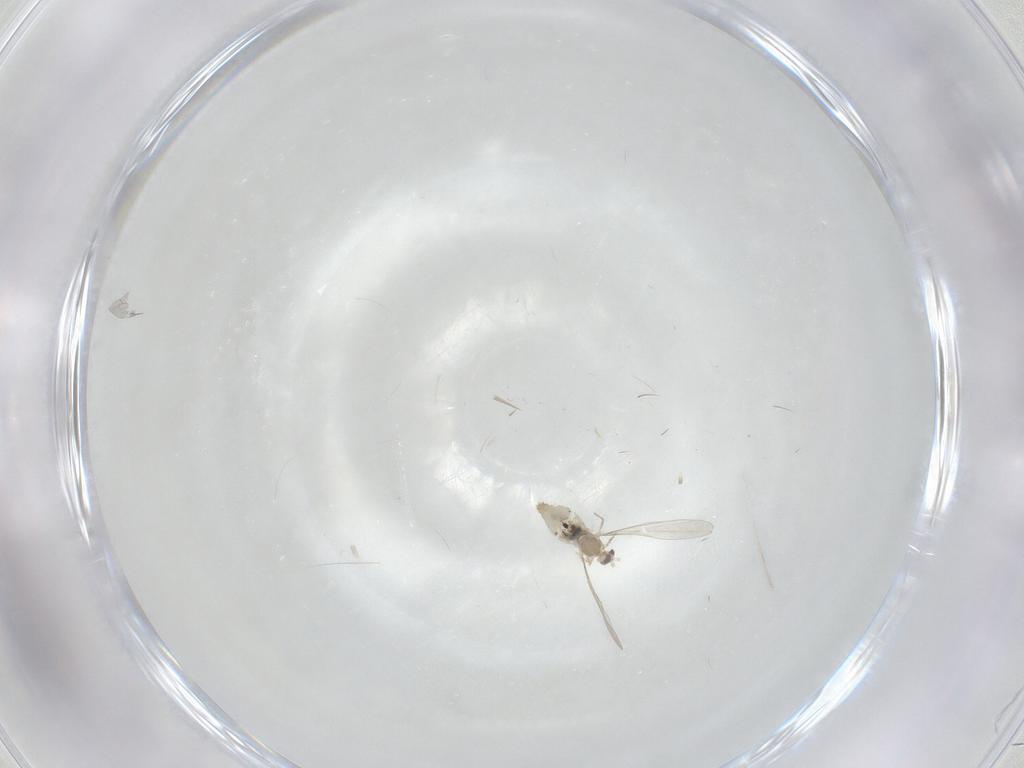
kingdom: Animalia
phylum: Arthropoda
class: Insecta
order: Diptera
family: Cecidomyiidae
